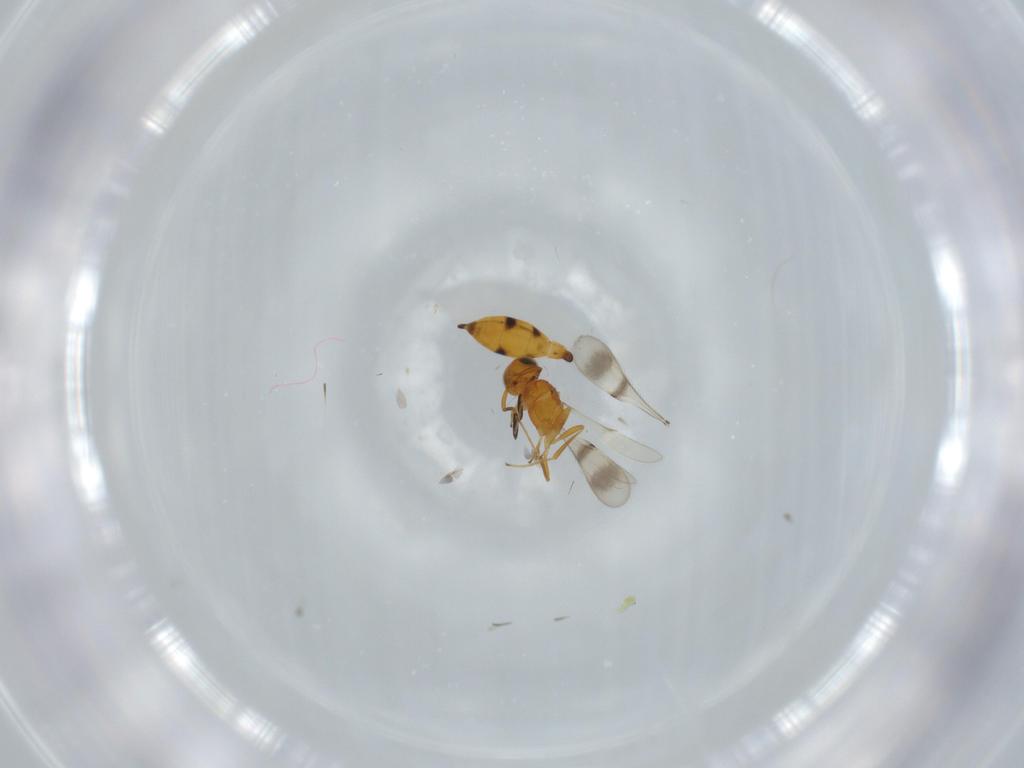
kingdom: Animalia
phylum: Arthropoda
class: Insecta
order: Hymenoptera
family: Scelionidae
